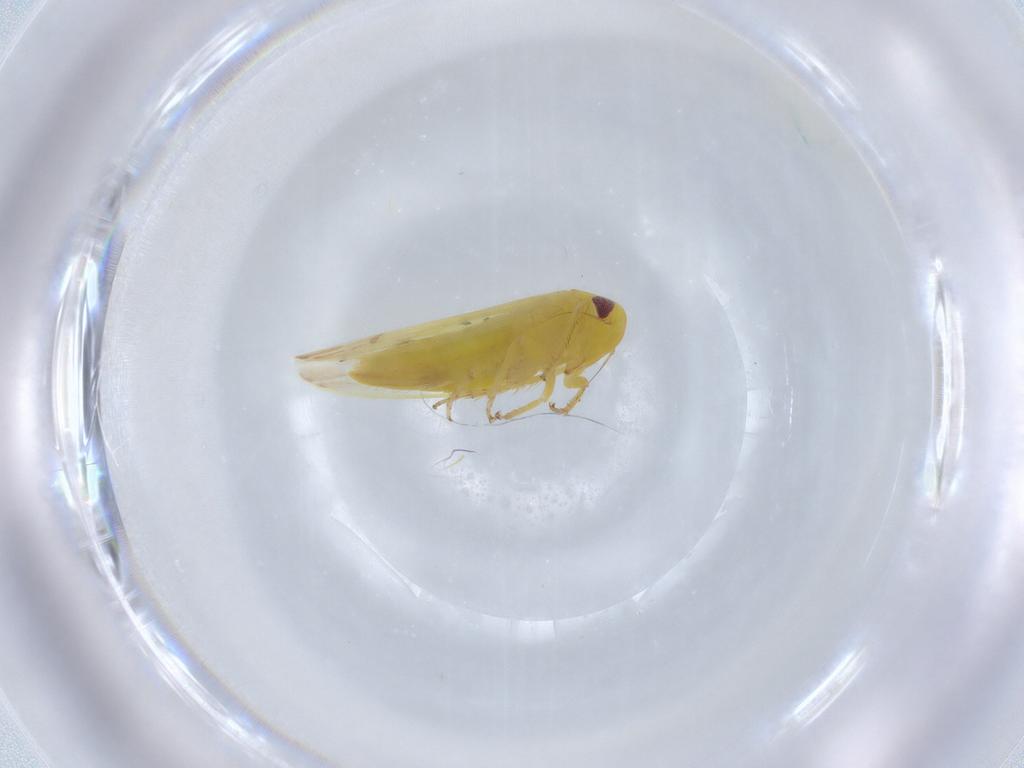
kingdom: Animalia
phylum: Arthropoda
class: Insecta
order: Hemiptera
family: Cicadellidae
